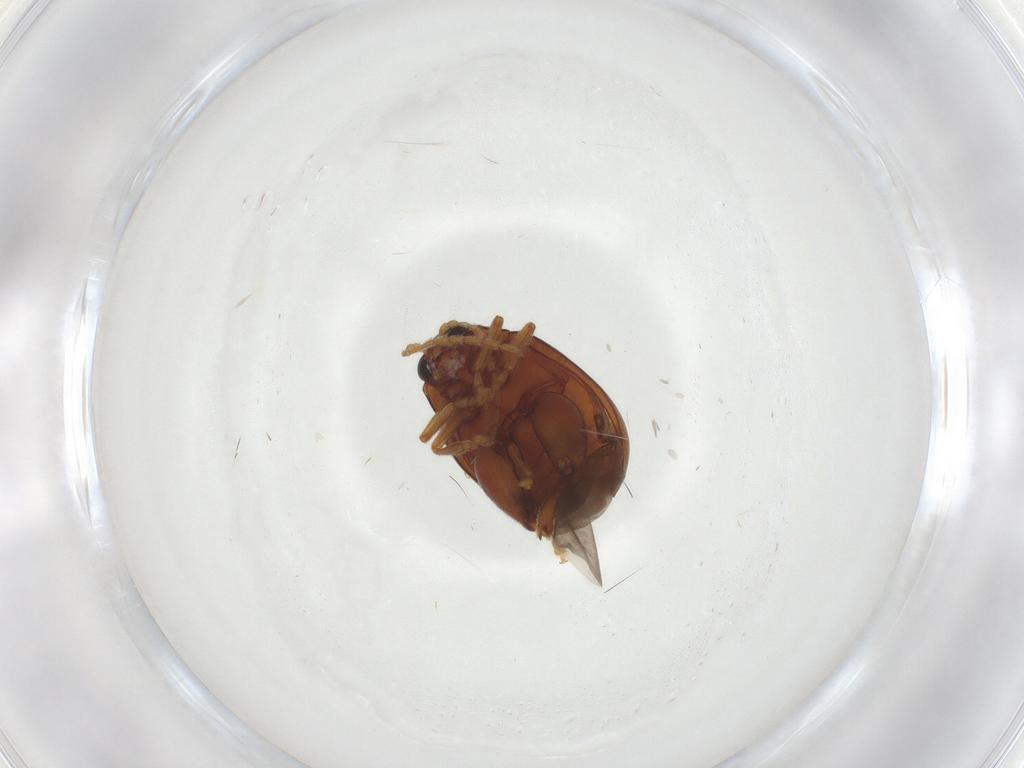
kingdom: Animalia
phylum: Arthropoda
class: Insecta
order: Coleoptera
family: Chrysomelidae
